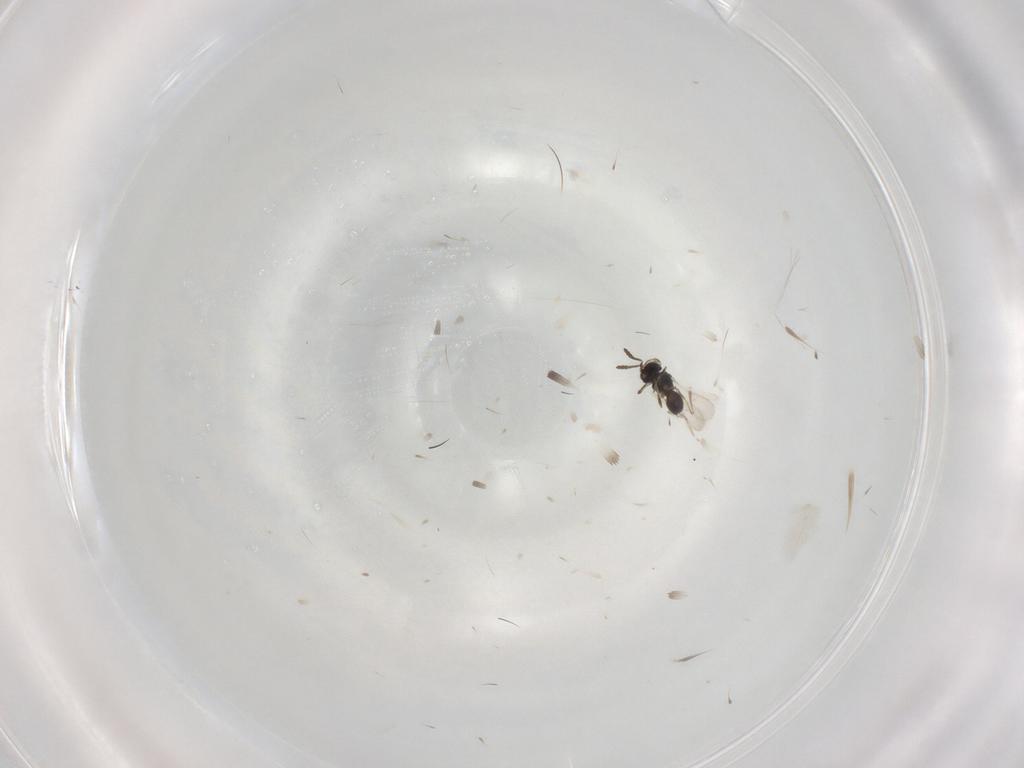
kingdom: Animalia
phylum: Arthropoda
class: Insecta
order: Hymenoptera
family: Scelionidae
